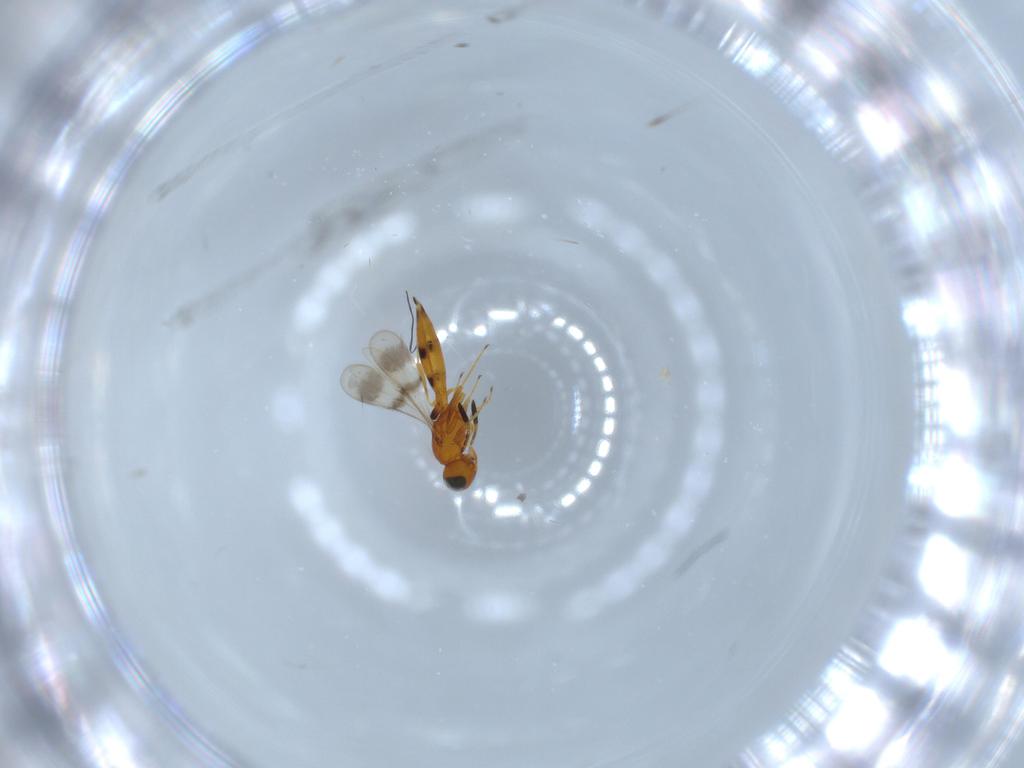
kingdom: Animalia
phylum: Arthropoda
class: Insecta
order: Hymenoptera
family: Scelionidae
